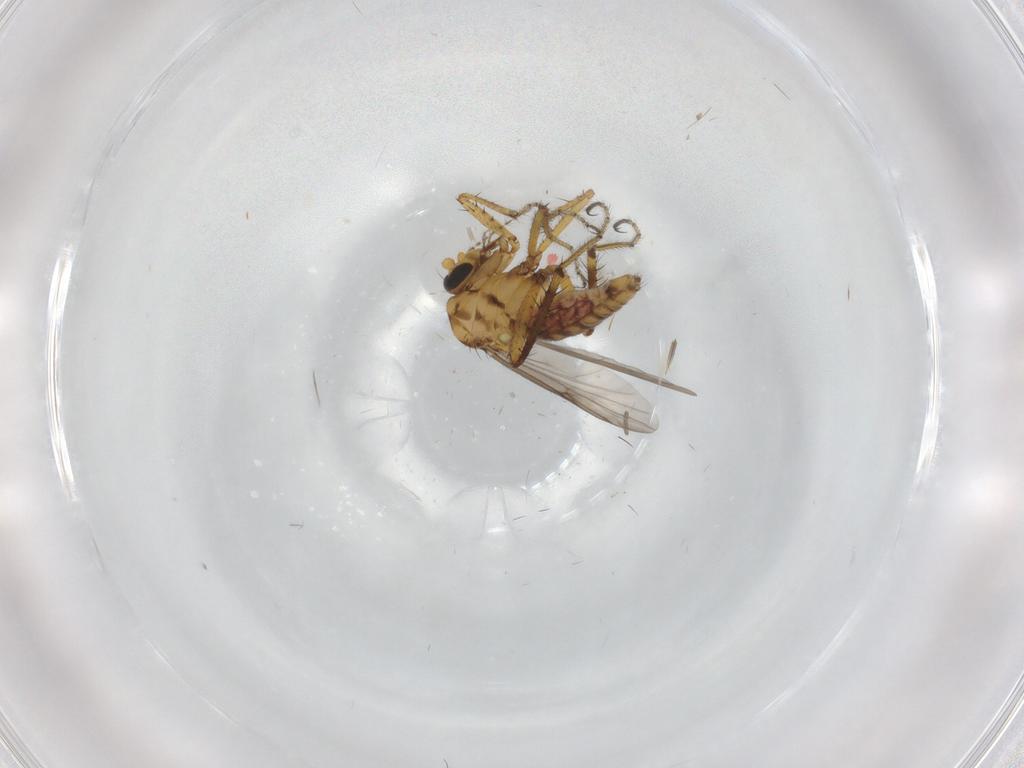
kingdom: Animalia
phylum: Arthropoda
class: Insecta
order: Diptera
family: Phoridae
